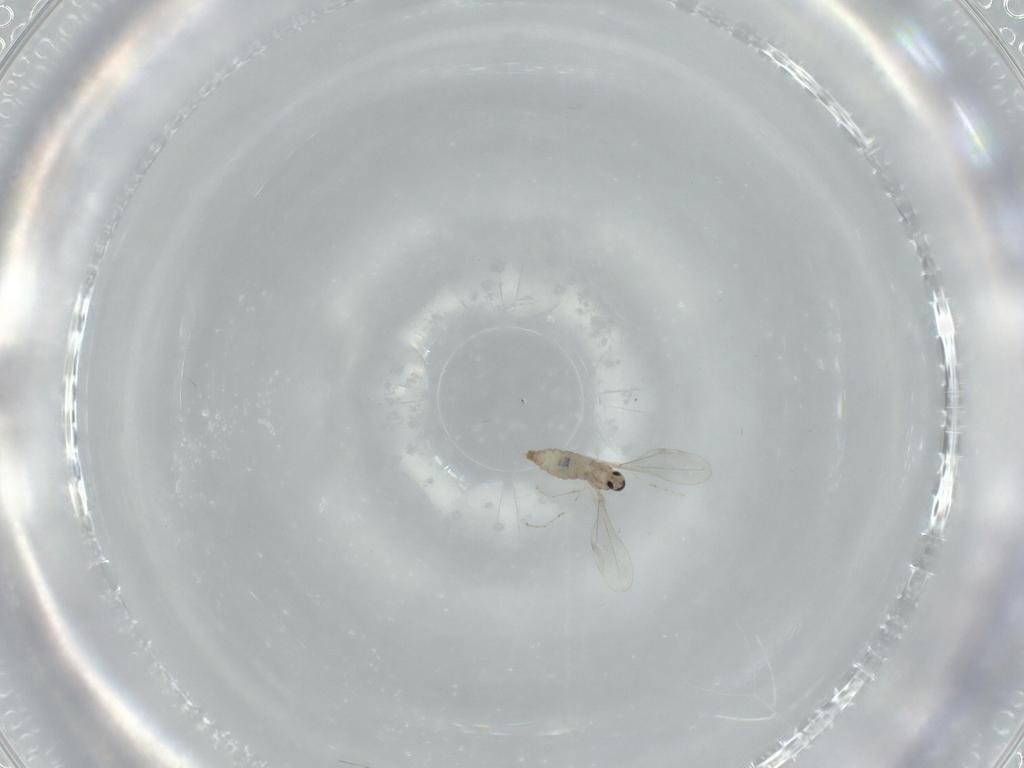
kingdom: Animalia
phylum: Arthropoda
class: Insecta
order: Diptera
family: Cecidomyiidae
